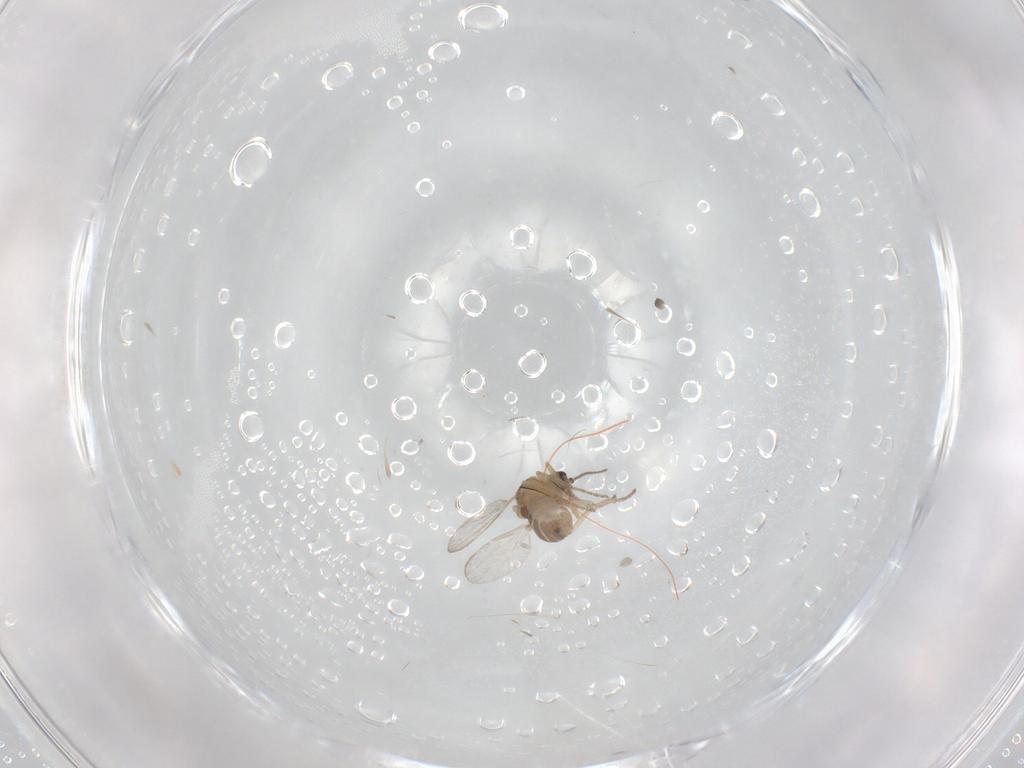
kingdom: Animalia
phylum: Arthropoda
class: Insecta
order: Diptera
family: Ceratopogonidae
